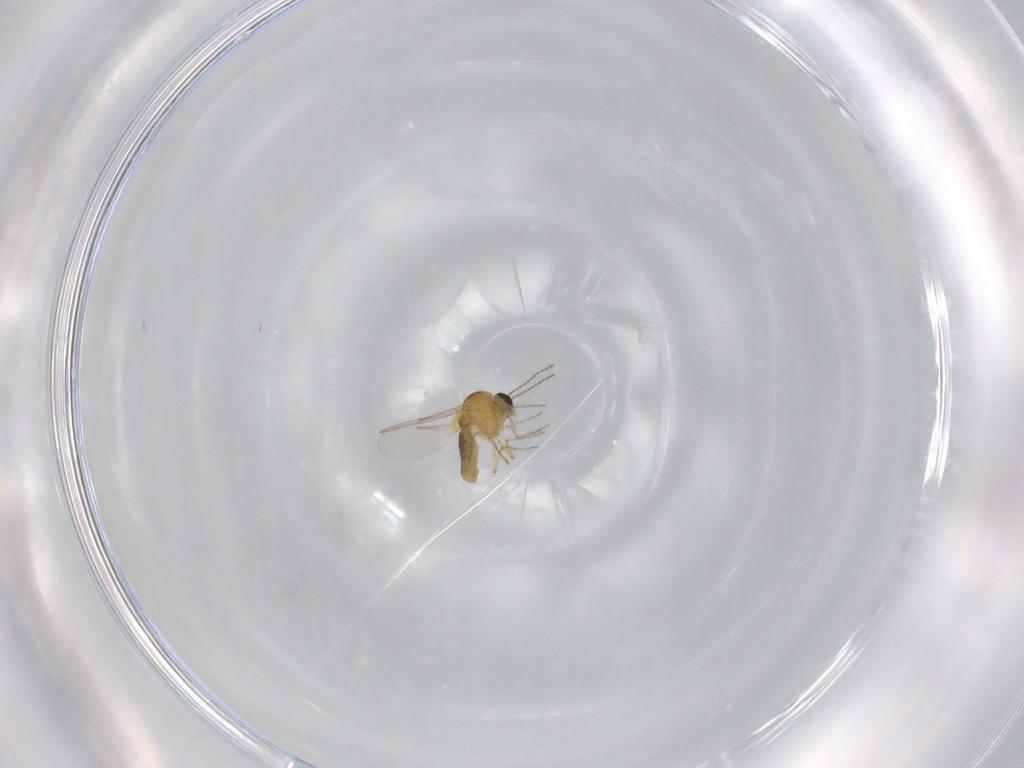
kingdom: Animalia
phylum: Arthropoda
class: Insecta
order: Diptera
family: Ceratopogonidae
